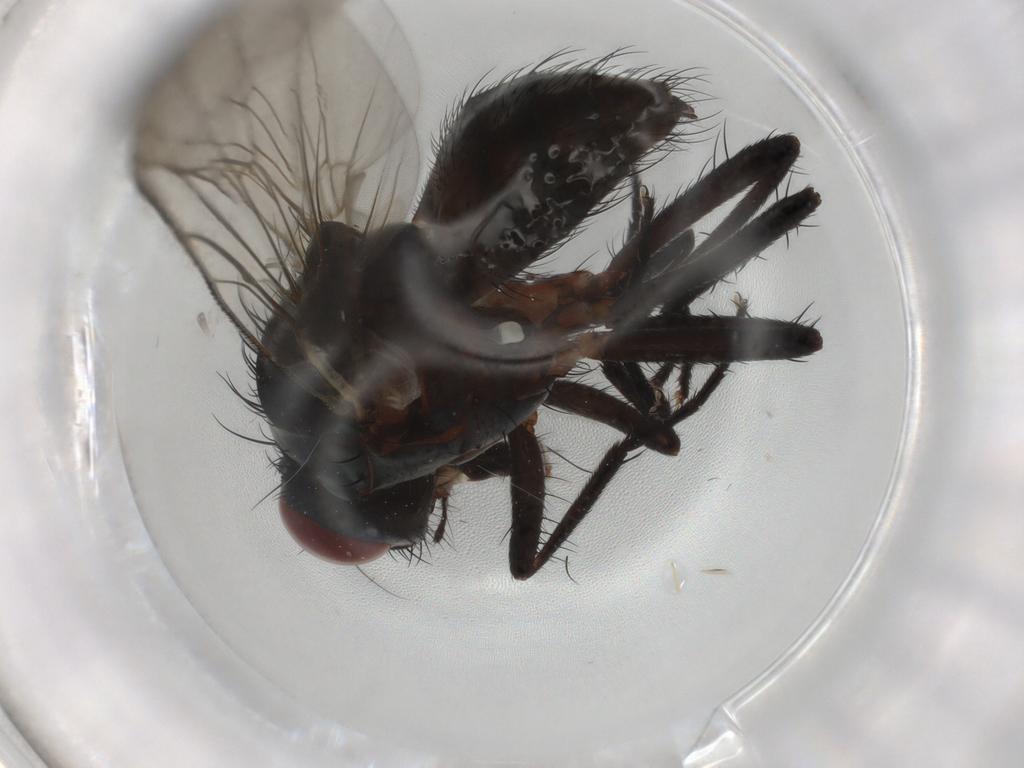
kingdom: Animalia
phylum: Arthropoda
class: Insecta
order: Diptera
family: Anthomyiidae
